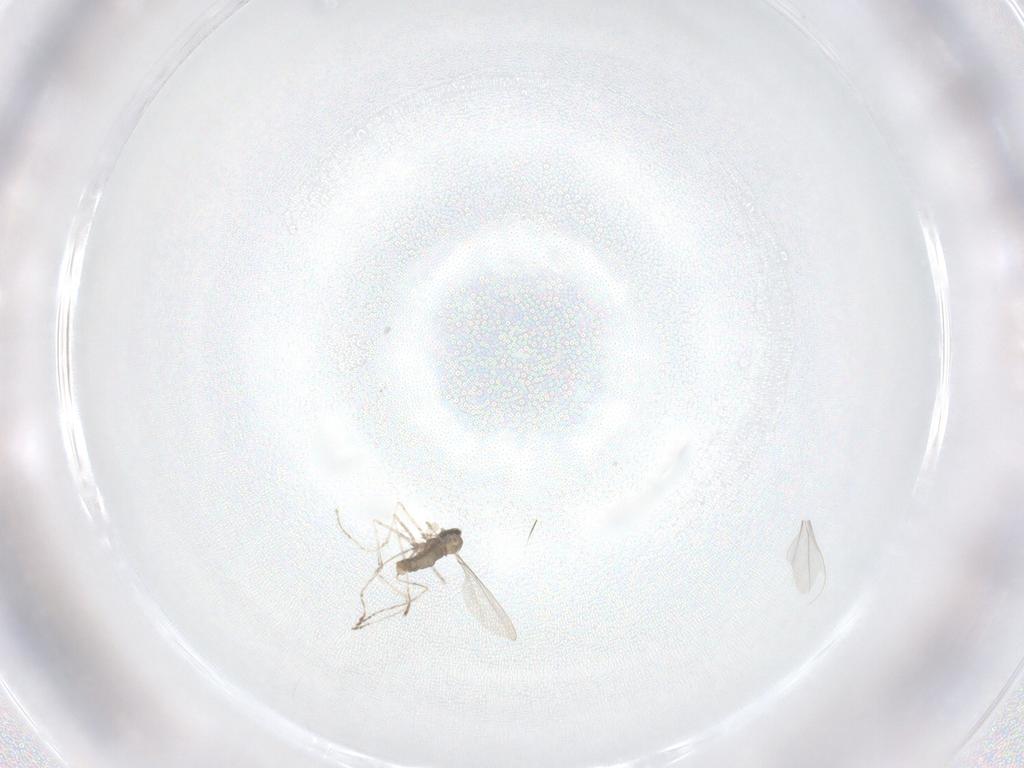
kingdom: Animalia
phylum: Arthropoda
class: Insecta
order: Diptera
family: Cecidomyiidae
